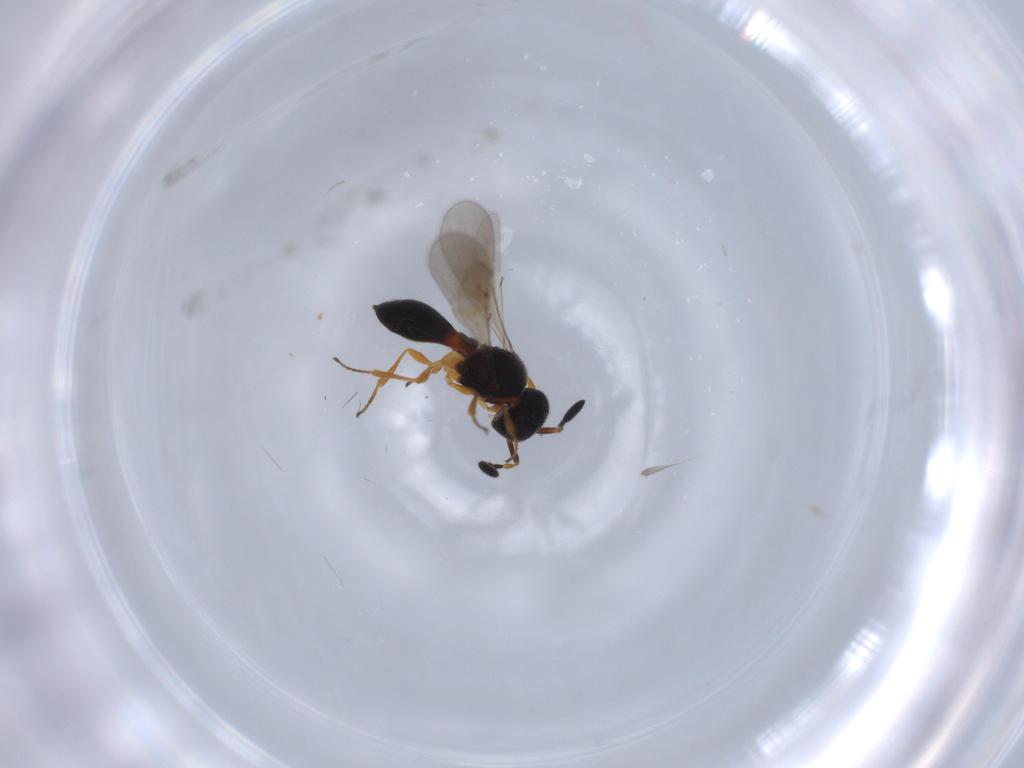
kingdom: Animalia
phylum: Arthropoda
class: Insecta
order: Hymenoptera
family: Scelionidae
